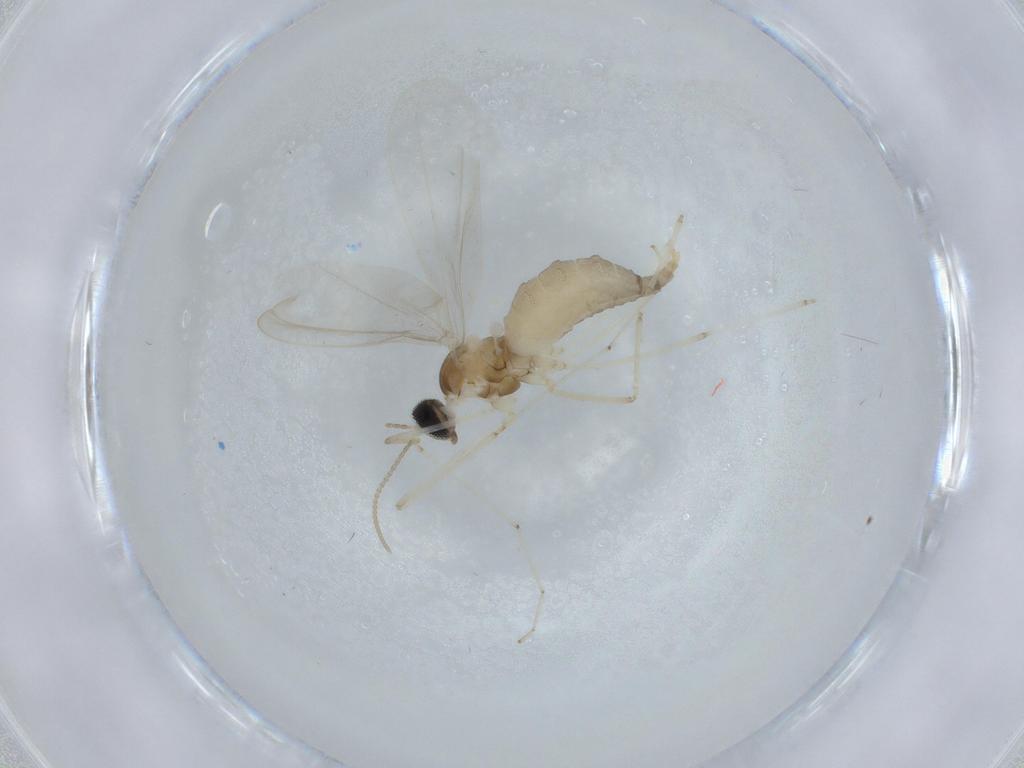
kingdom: Animalia
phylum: Arthropoda
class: Insecta
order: Diptera
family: Cecidomyiidae
